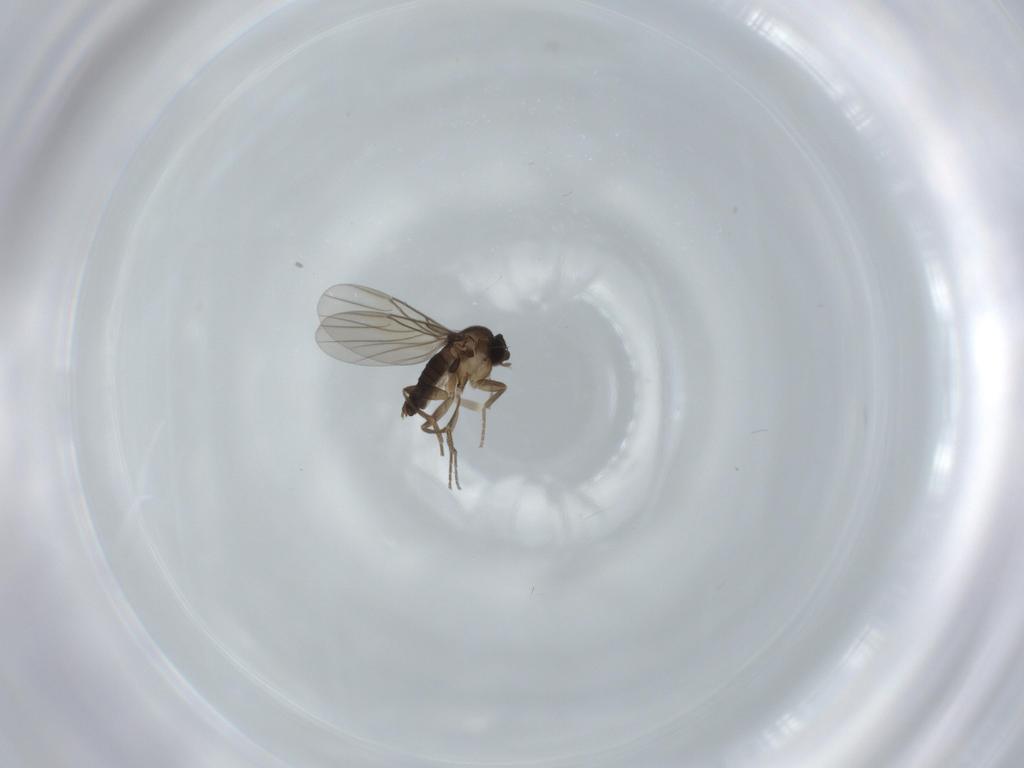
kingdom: Animalia
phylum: Arthropoda
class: Insecta
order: Diptera
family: Phoridae
